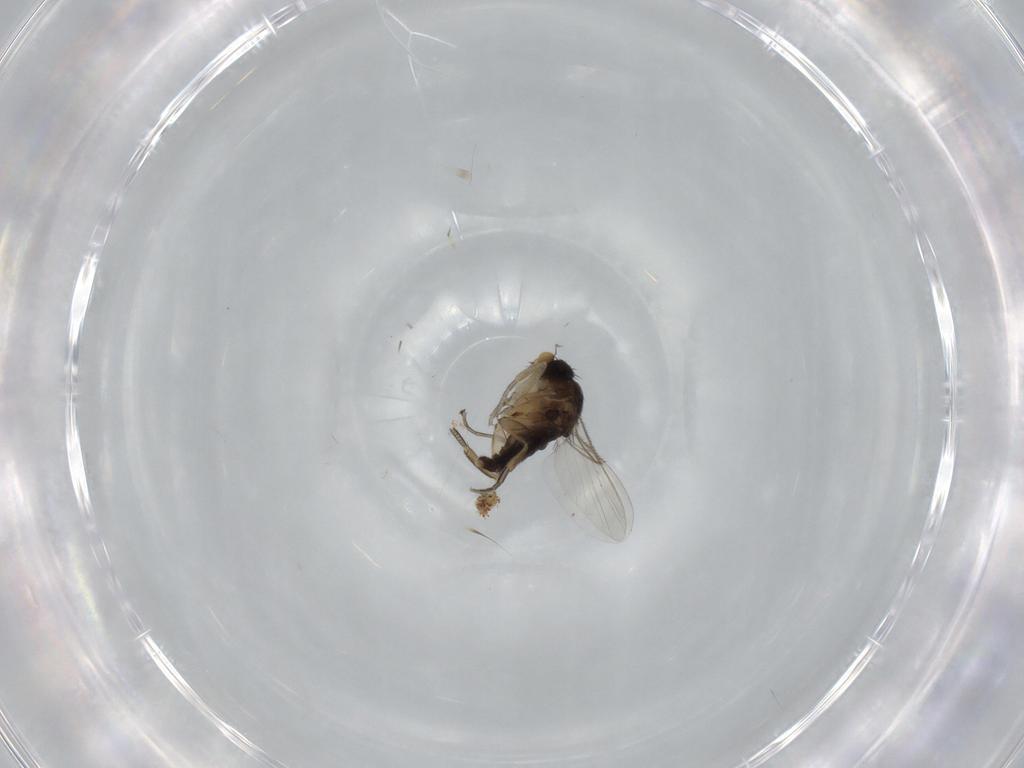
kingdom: Animalia
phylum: Arthropoda
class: Insecta
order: Diptera
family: Phoridae
